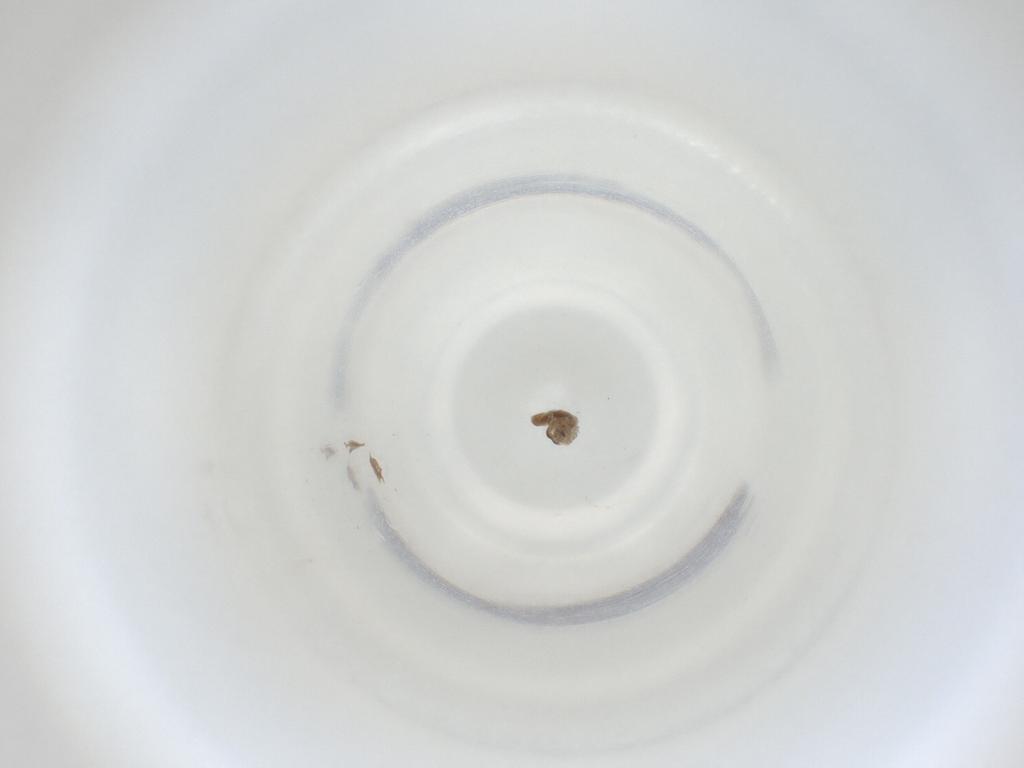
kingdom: Animalia
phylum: Arthropoda
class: Insecta
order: Diptera
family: Cecidomyiidae
